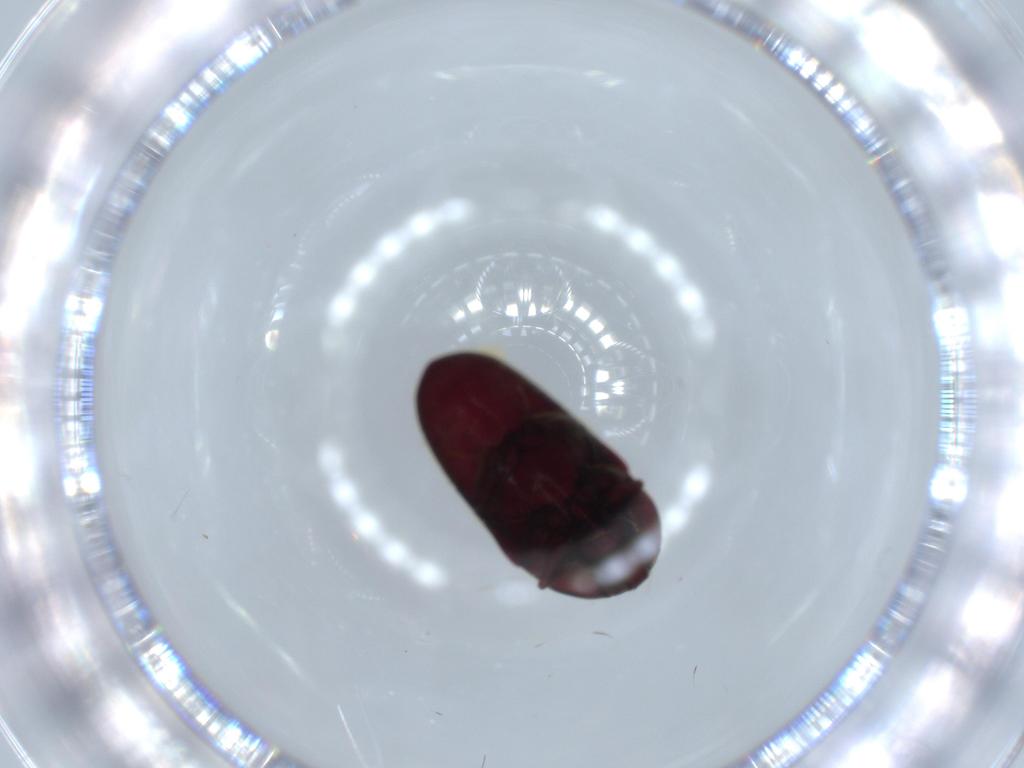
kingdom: Animalia
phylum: Arthropoda
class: Insecta
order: Coleoptera
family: Chrysomelidae
